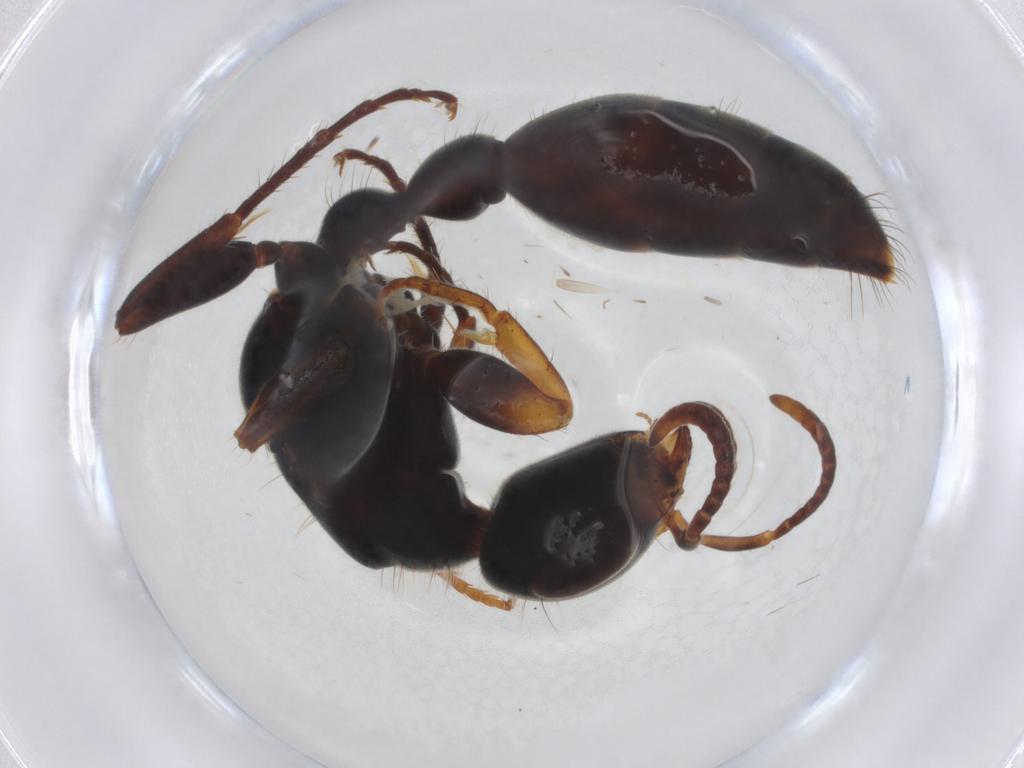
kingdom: Animalia
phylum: Arthropoda
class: Insecta
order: Hymenoptera
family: Formicidae
